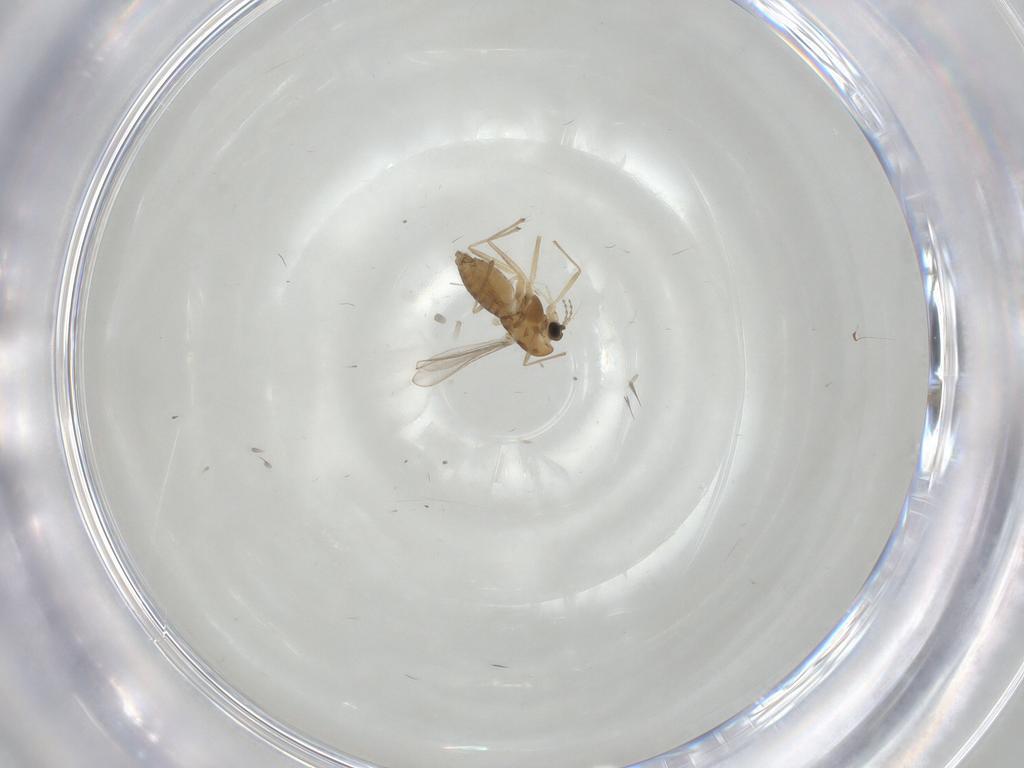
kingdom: Animalia
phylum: Arthropoda
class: Insecta
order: Diptera
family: Chironomidae
